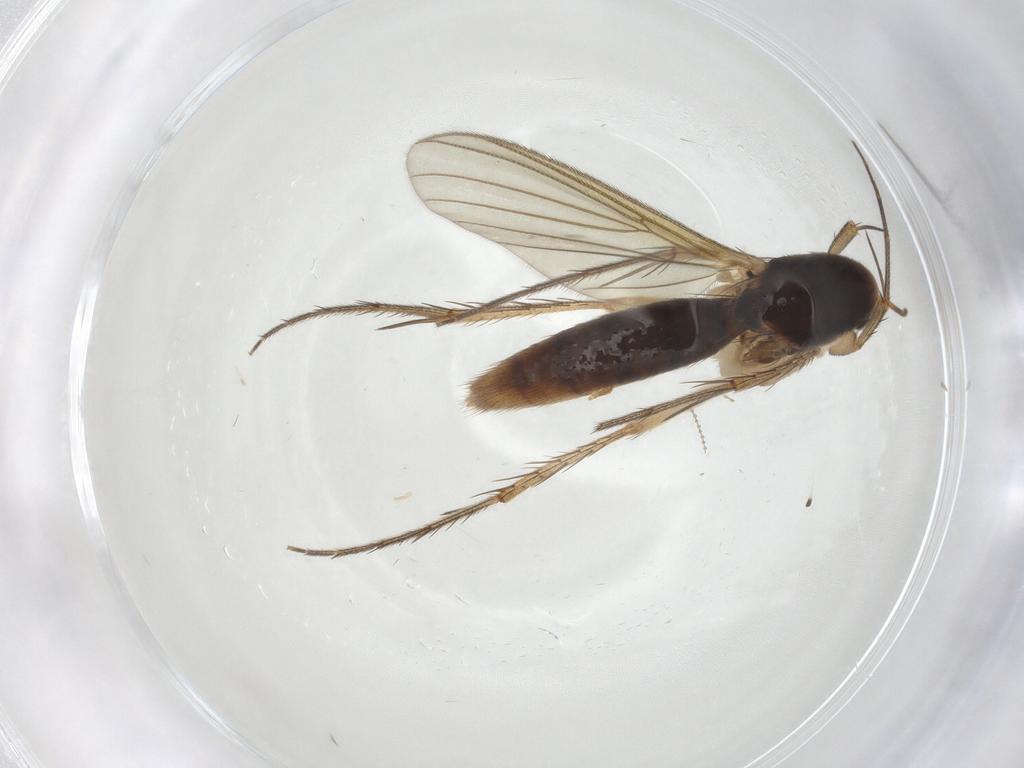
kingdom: Animalia
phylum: Arthropoda
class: Insecta
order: Diptera
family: Mycetophilidae
